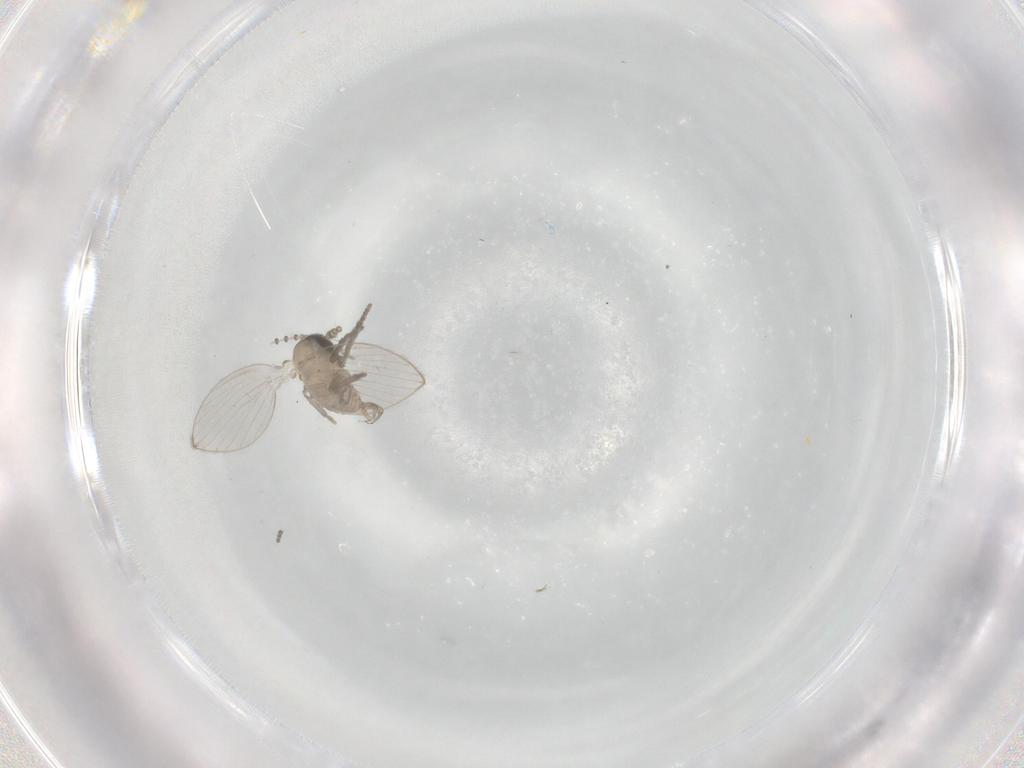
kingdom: Animalia
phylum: Arthropoda
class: Insecta
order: Diptera
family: Psychodidae
